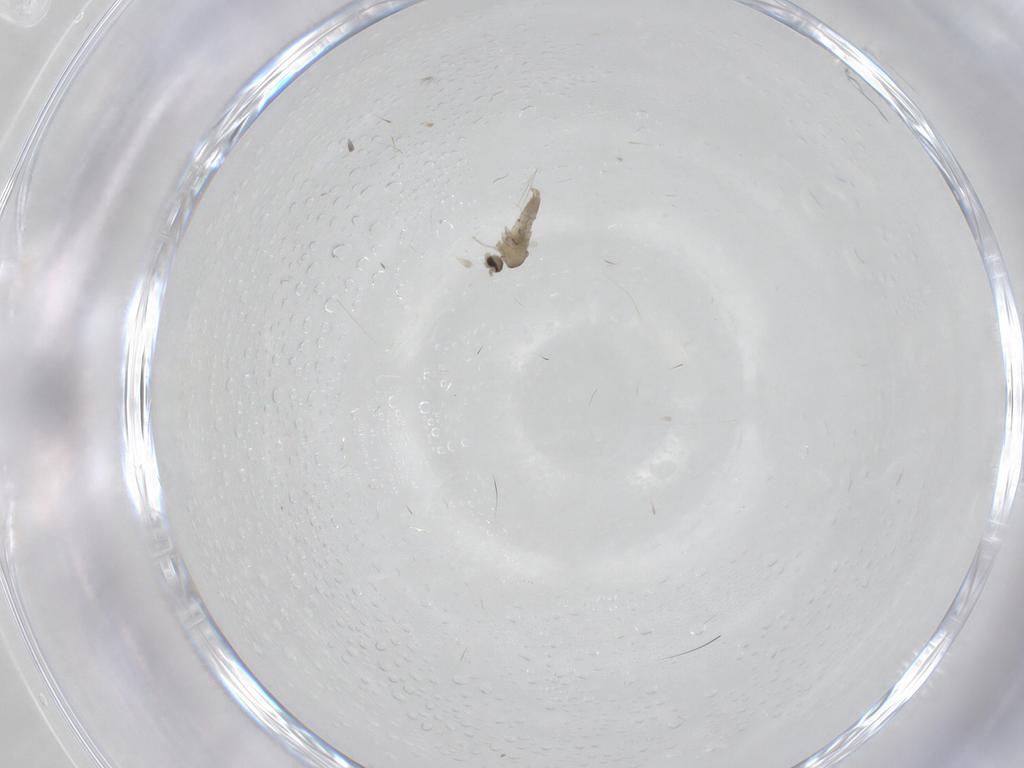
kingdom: Animalia
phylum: Arthropoda
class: Insecta
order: Diptera
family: Cecidomyiidae
